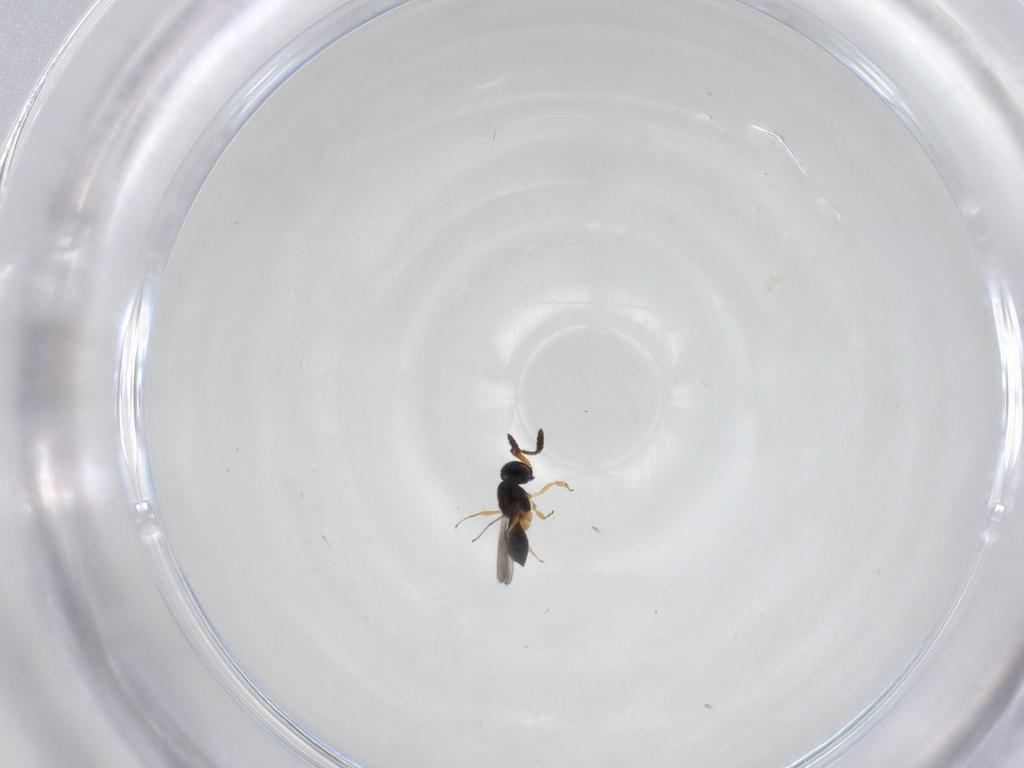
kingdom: Animalia
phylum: Arthropoda
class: Insecta
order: Hymenoptera
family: Scelionidae
